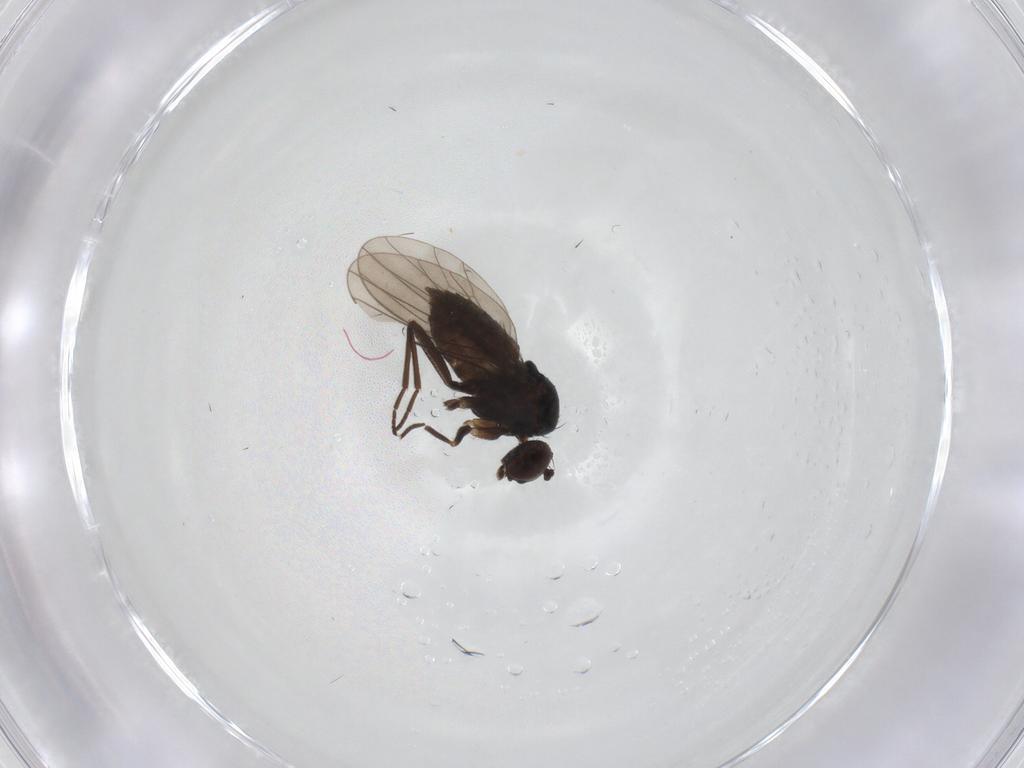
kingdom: Animalia
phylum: Arthropoda
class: Insecta
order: Diptera
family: Dolichopodidae
